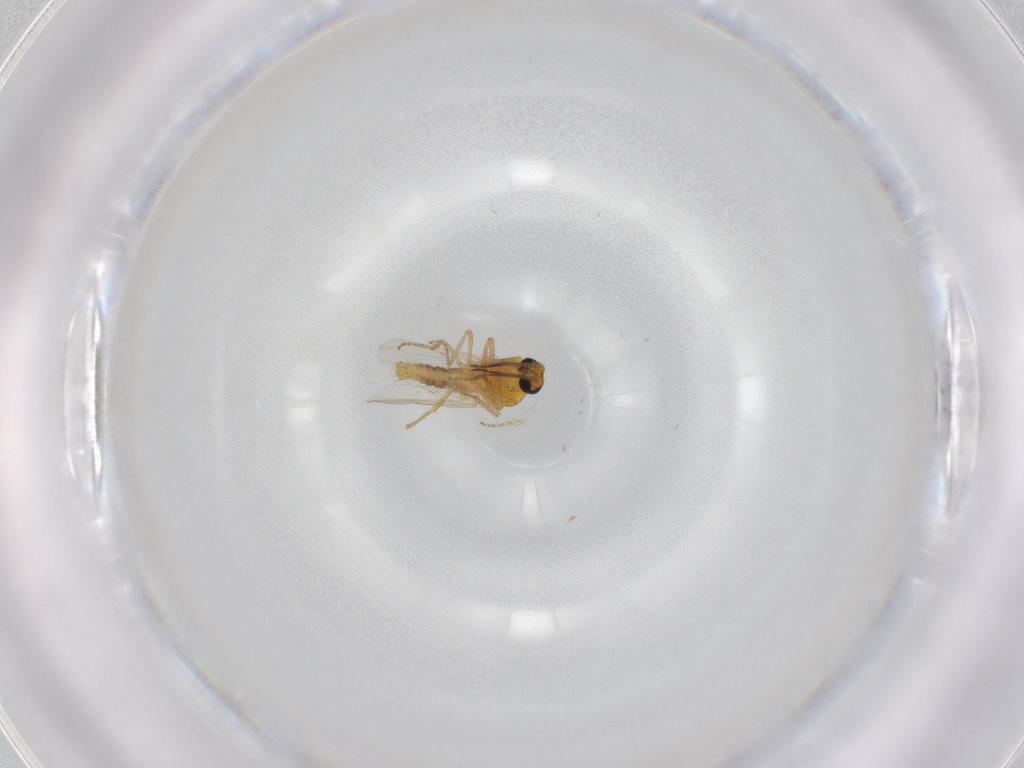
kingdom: Animalia
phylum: Arthropoda
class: Insecta
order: Diptera
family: Ceratopogonidae
